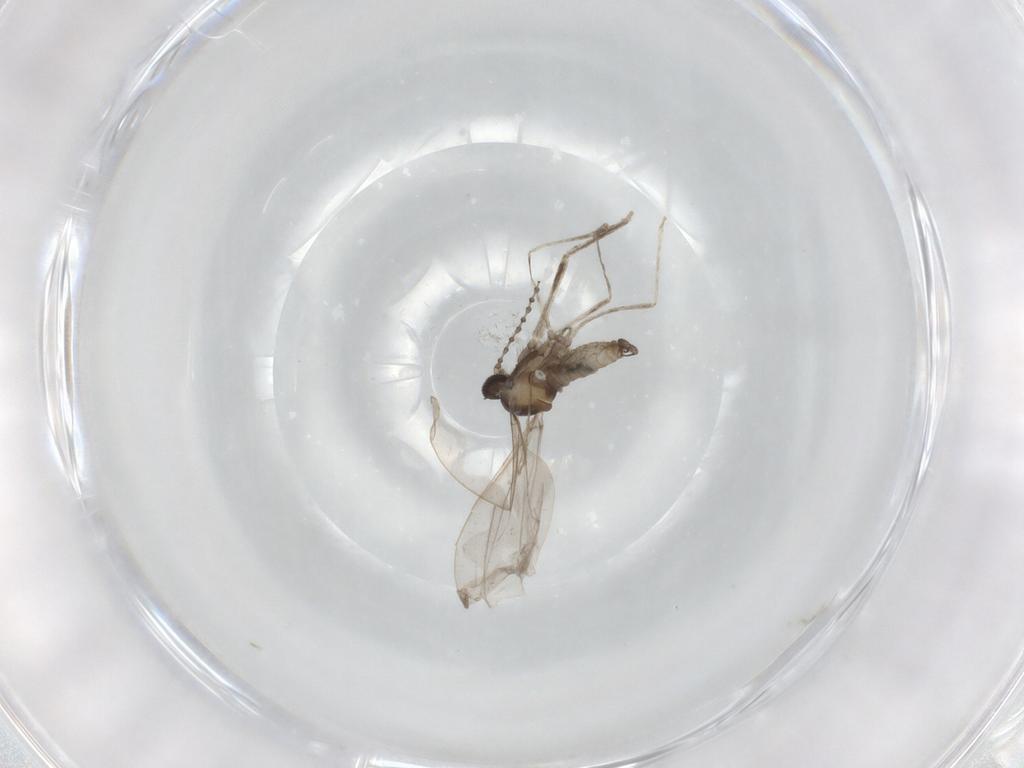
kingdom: Animalia
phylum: Arthropoda
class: Insecta
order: Diptera
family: Cecidomyiidae
